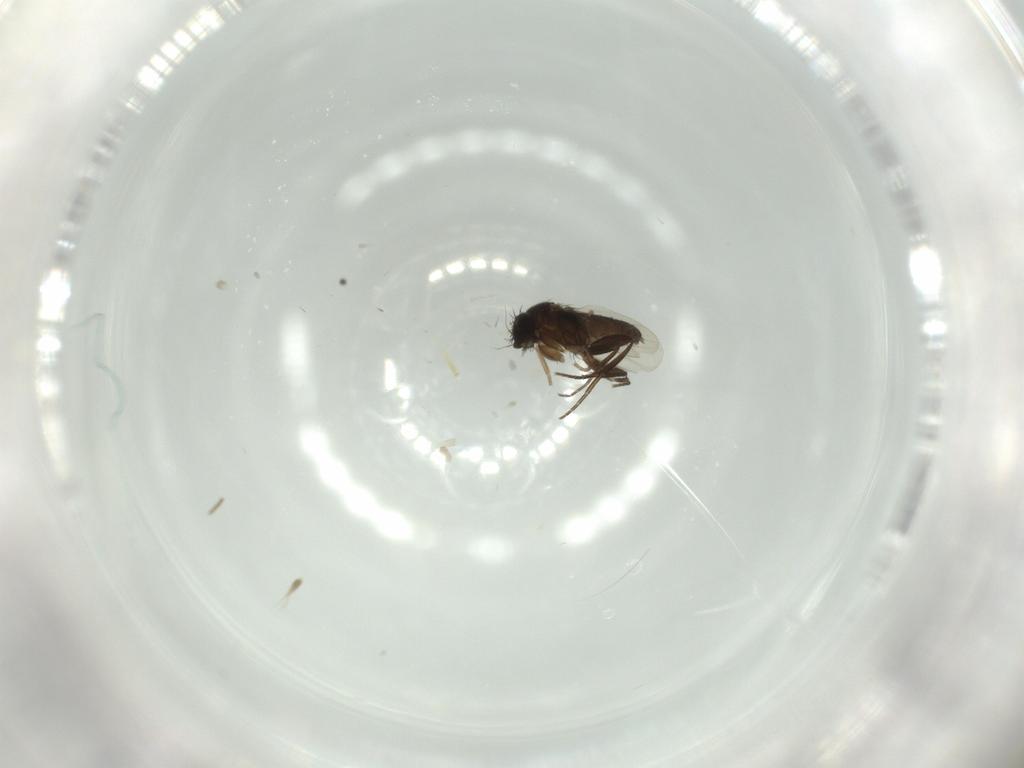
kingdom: Animalia
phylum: Arthropoda
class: Insecta
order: Diptera
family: Phoridae
